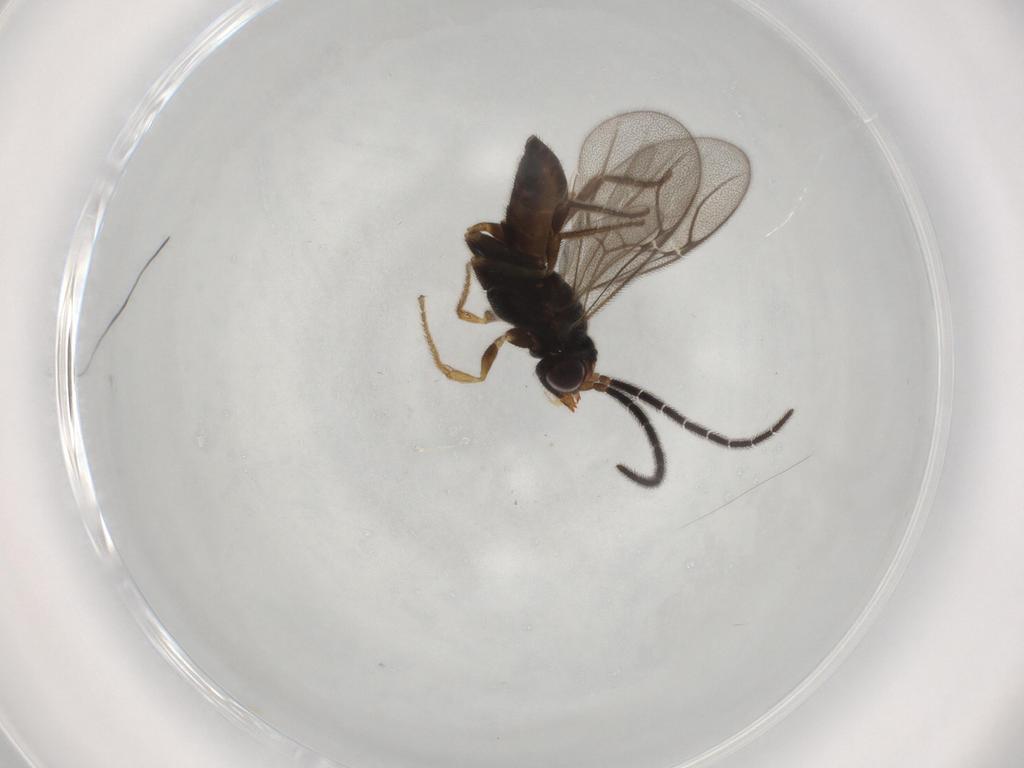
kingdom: Animalia
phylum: Arthropoda
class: Insecta
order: Hymenoptera
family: Dryinidae
